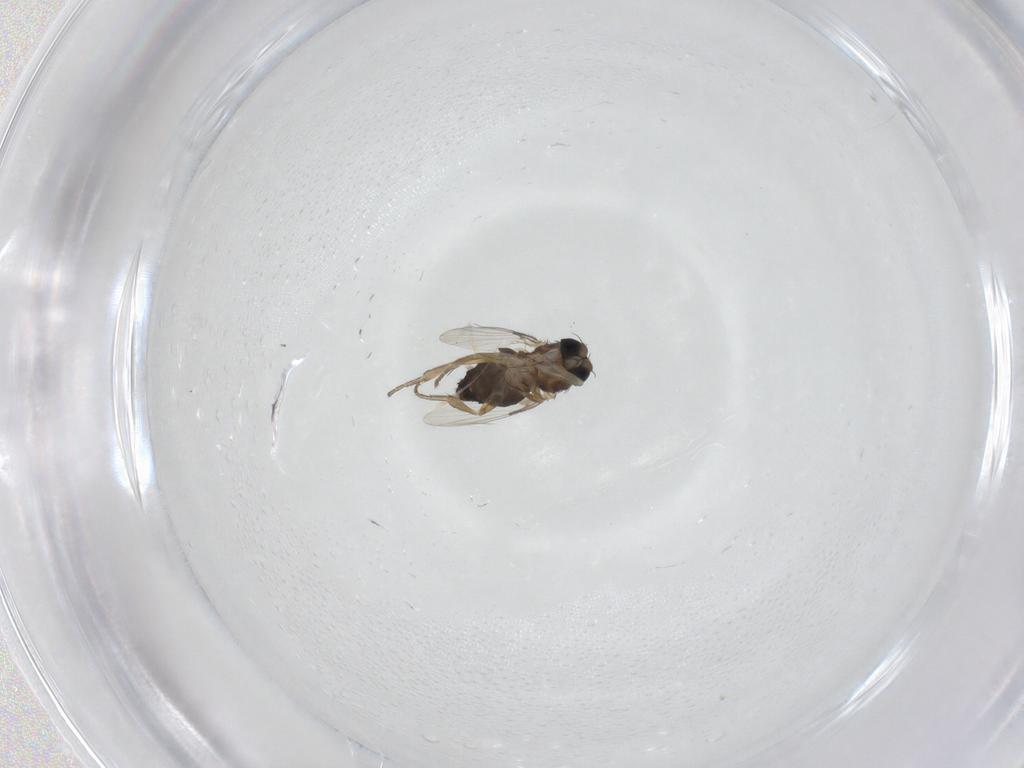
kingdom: Animalia
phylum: Arthropoda
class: Insecta
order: Diptera
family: Phoridae
